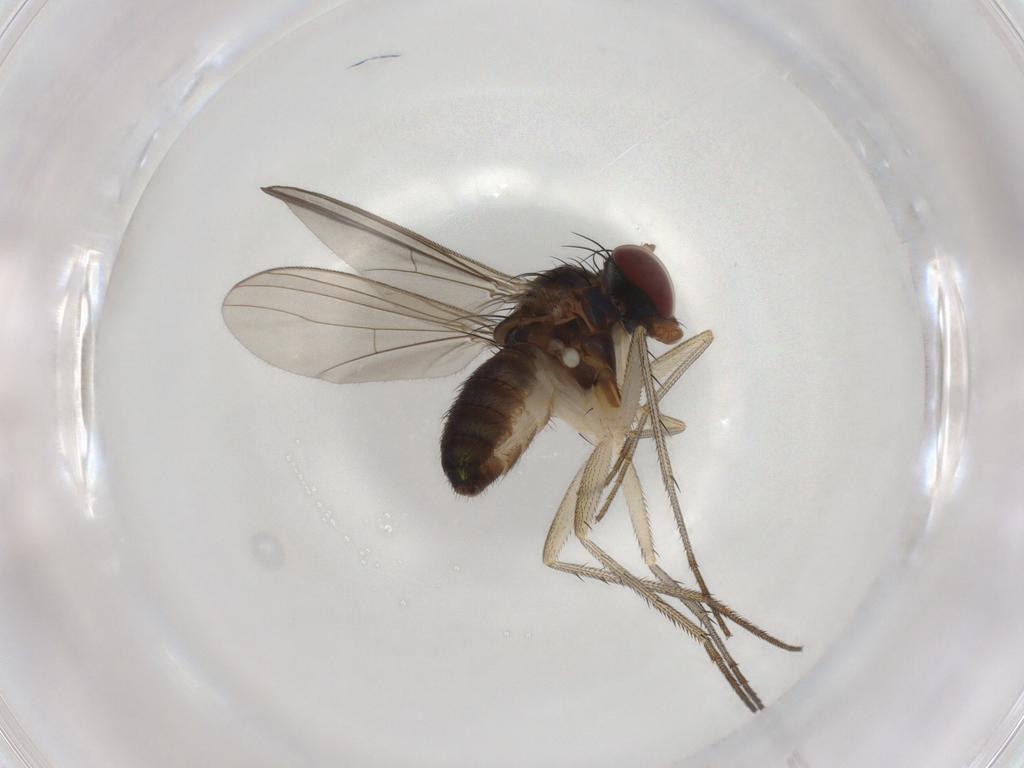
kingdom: Animalia
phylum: Arthropoda
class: Insecta
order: Diptera
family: Dolichopodidae
